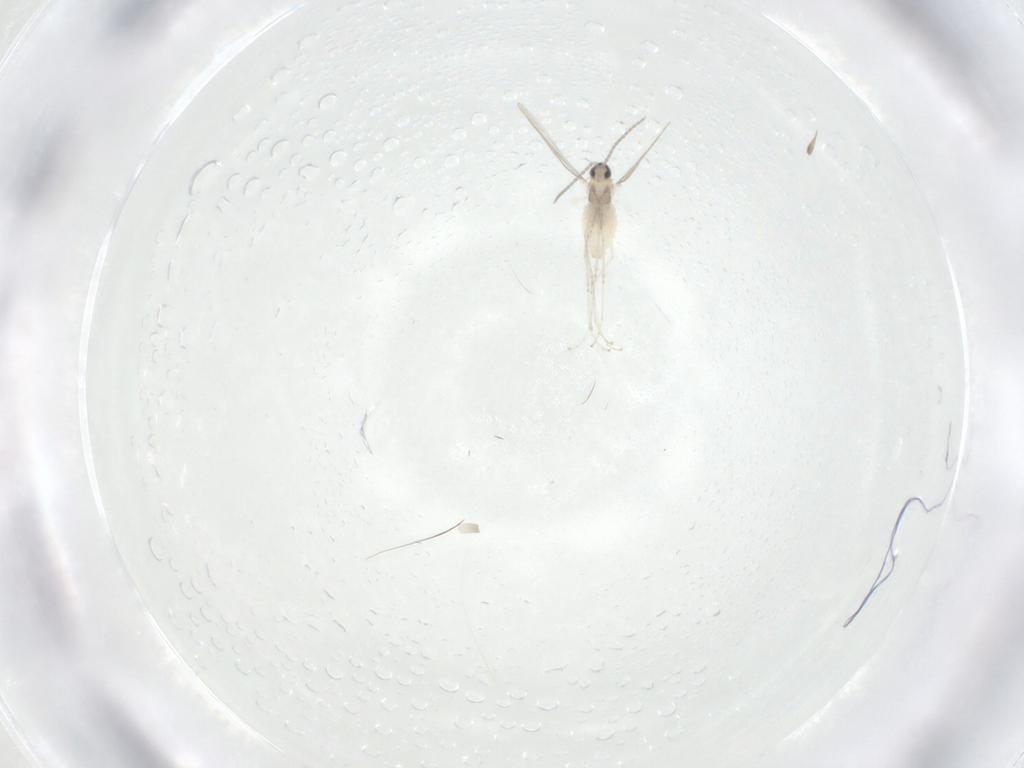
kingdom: Animalia
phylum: Arthropoda
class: Insecta
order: Diptera
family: Cecidomyiidae
